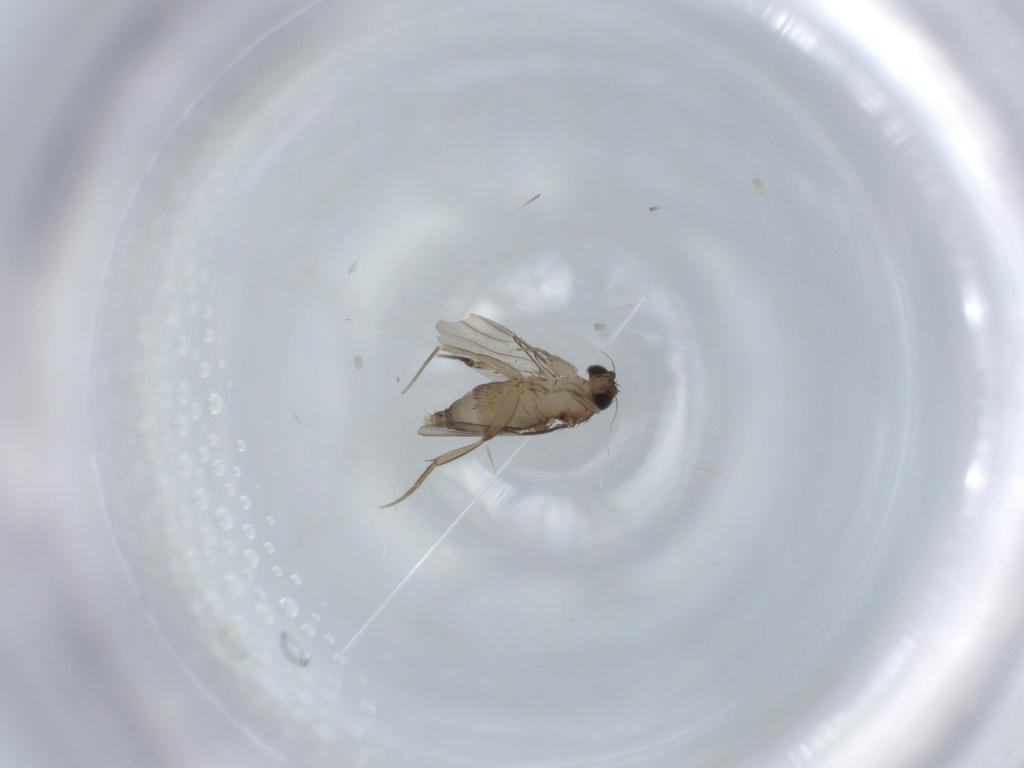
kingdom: Animalia
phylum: Arthropoda
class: Insecta
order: Diptera
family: Phoridae
